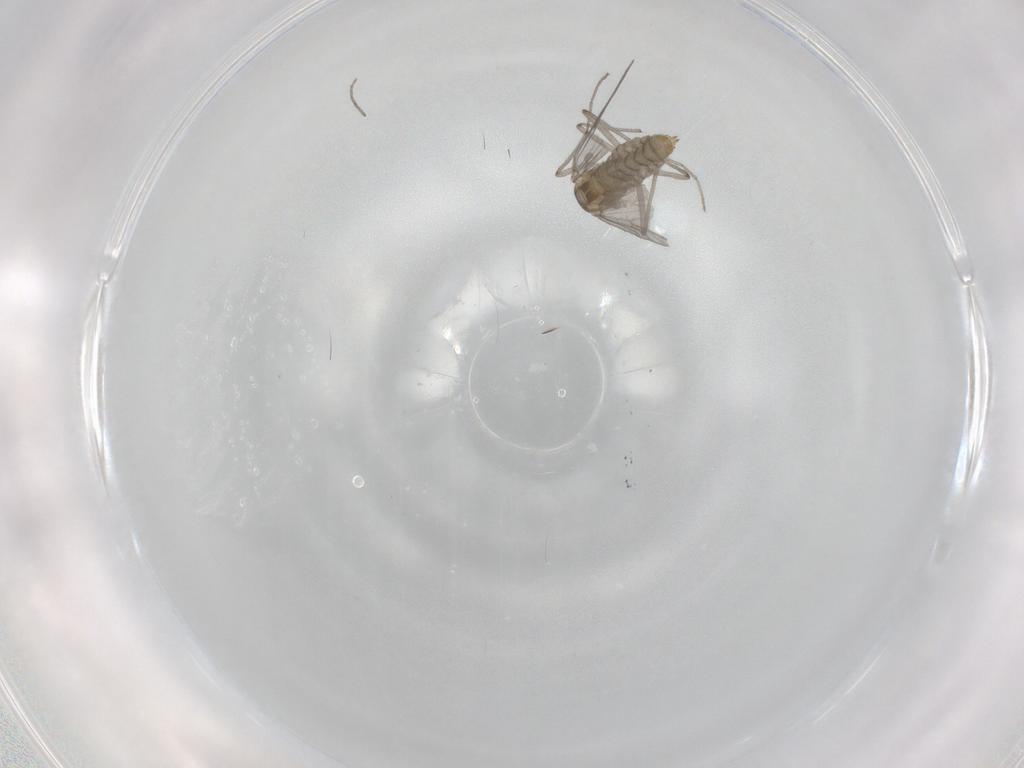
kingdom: Animalia
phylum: Arthropoda
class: Insecta
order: Diptera
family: Chironomidae
